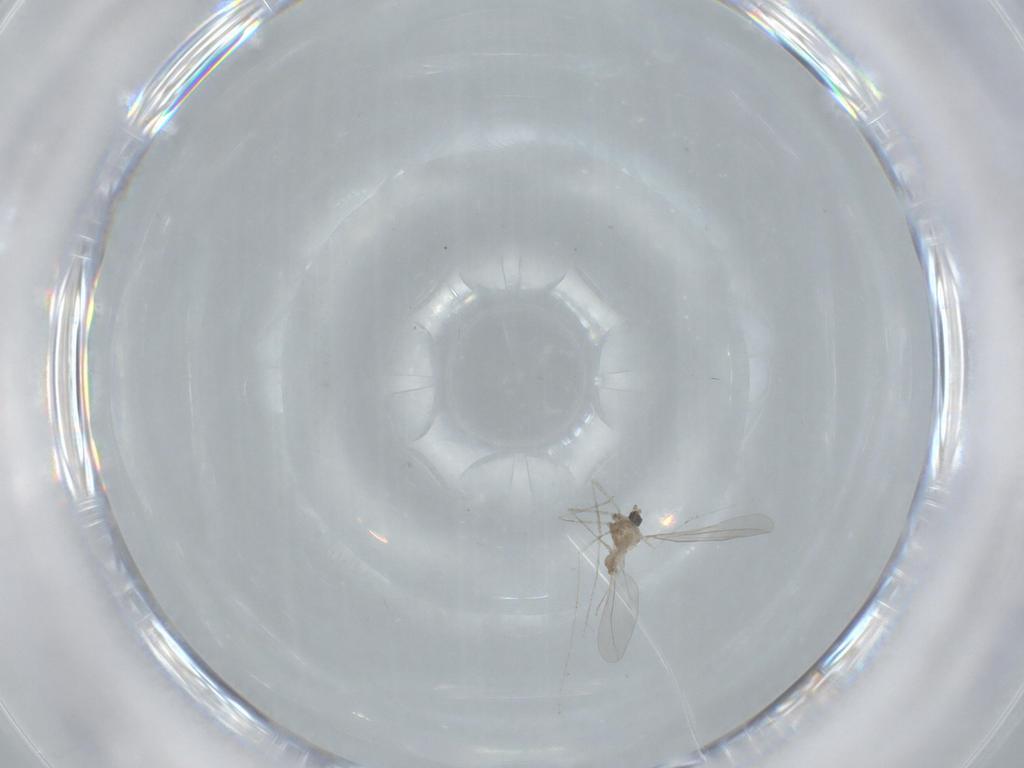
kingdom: Animalia
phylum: Arthropoda
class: Insecta
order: Diptera
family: Cecidomyiidae
